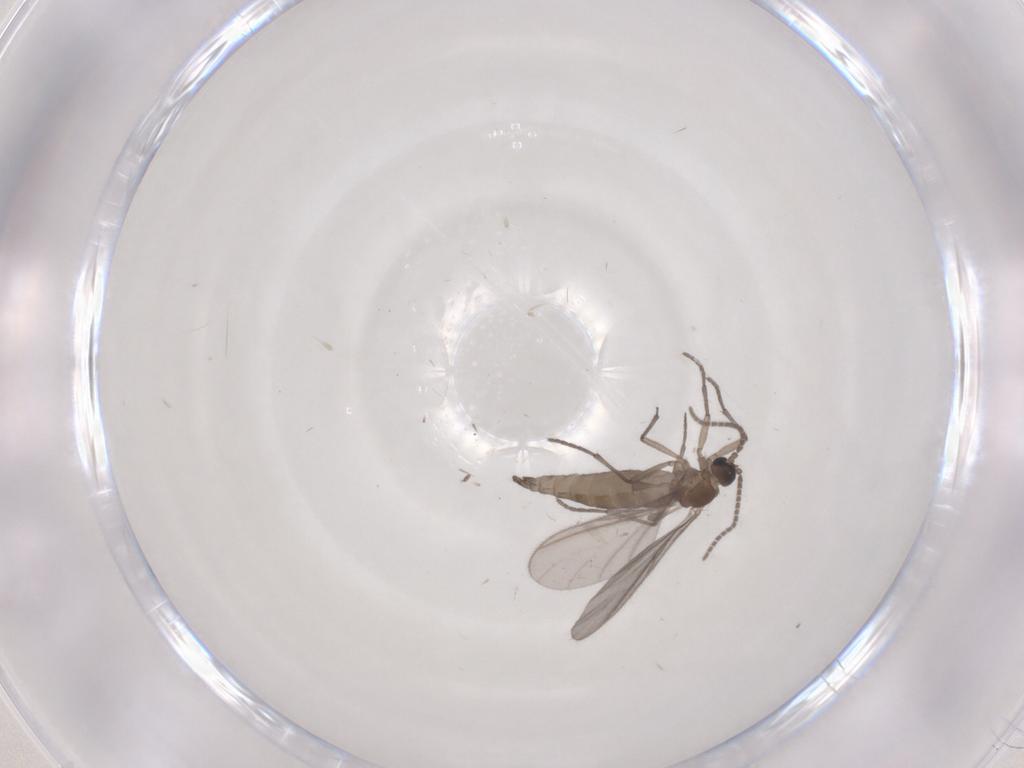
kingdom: Animalia
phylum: Arthropoda
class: Insecta
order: Diptera
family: Sciaridae
